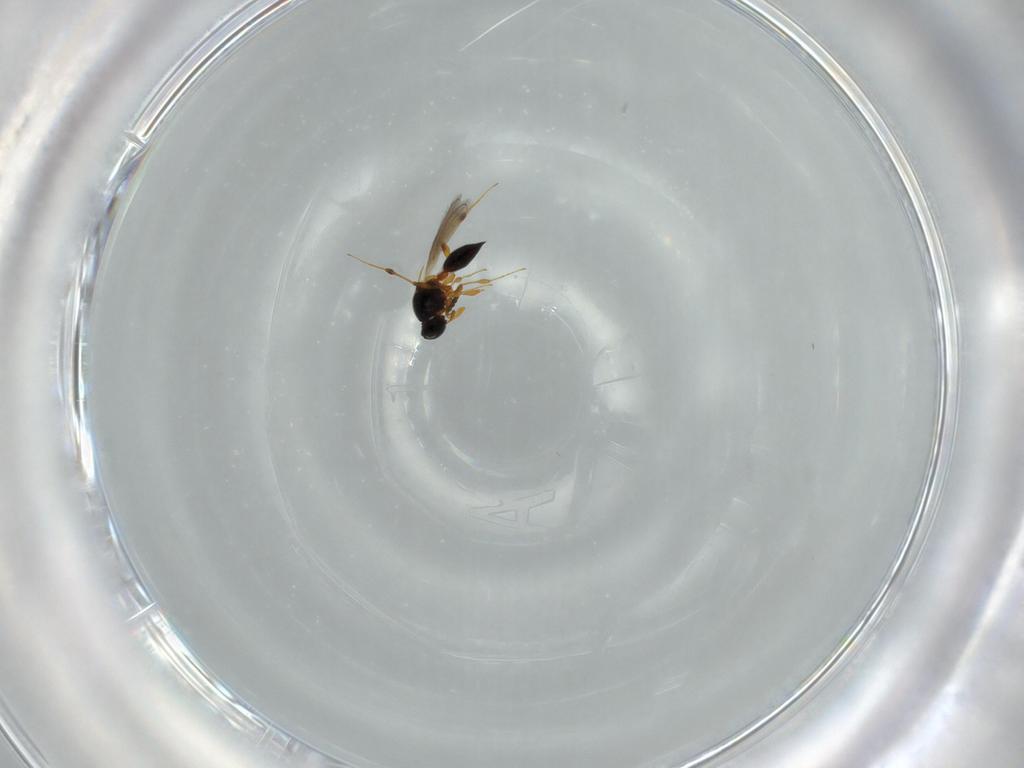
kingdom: Animalia
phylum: Arthropoda
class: Insecta
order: Hymenoptera
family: Platygastridae
